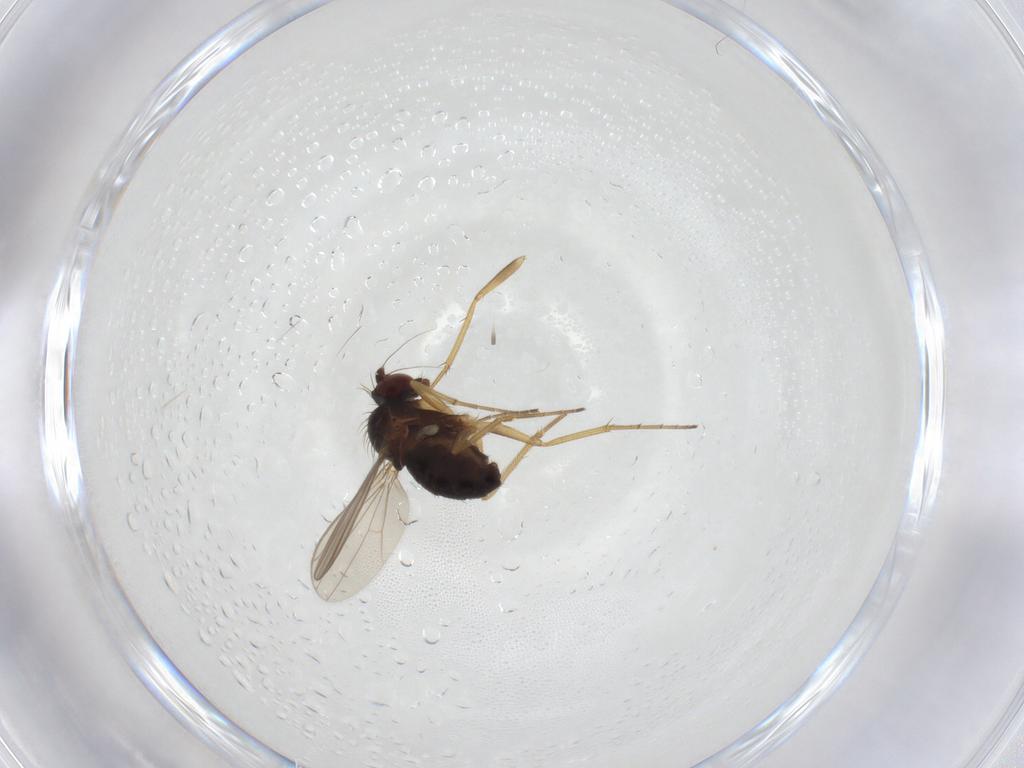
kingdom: Animalia
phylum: Arthropoda
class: Insecta
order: Diptera
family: Dolichopodidae
